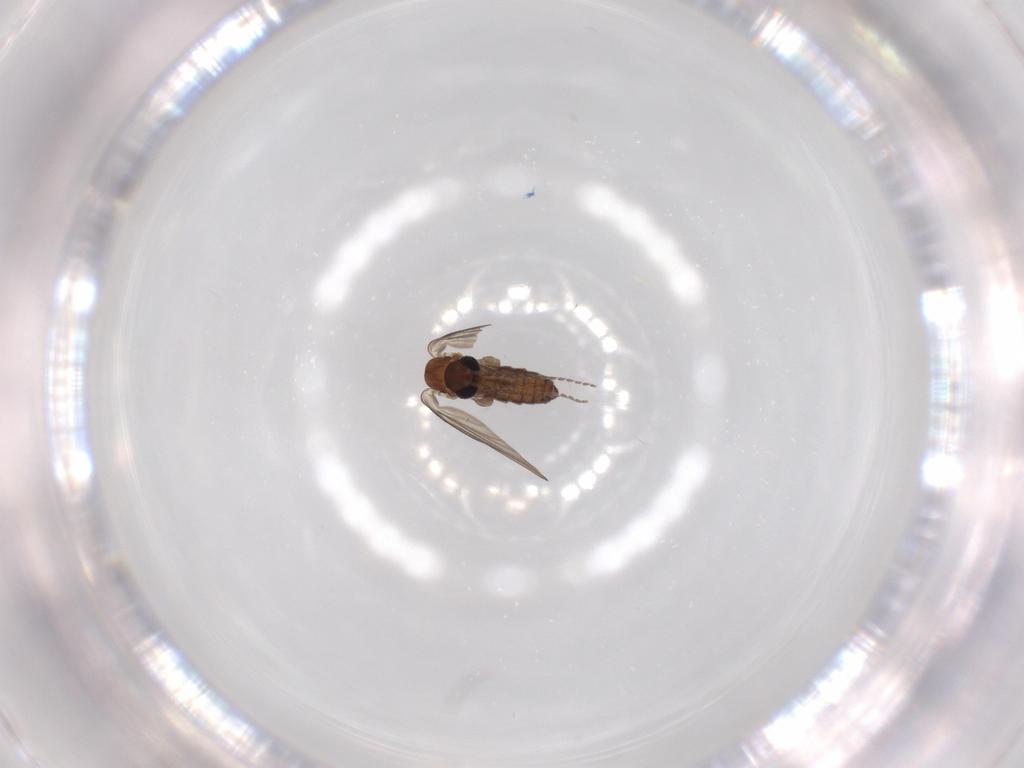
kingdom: Animalia
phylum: Arthropoda
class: Insecta
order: Diptera
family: Psychodidae
